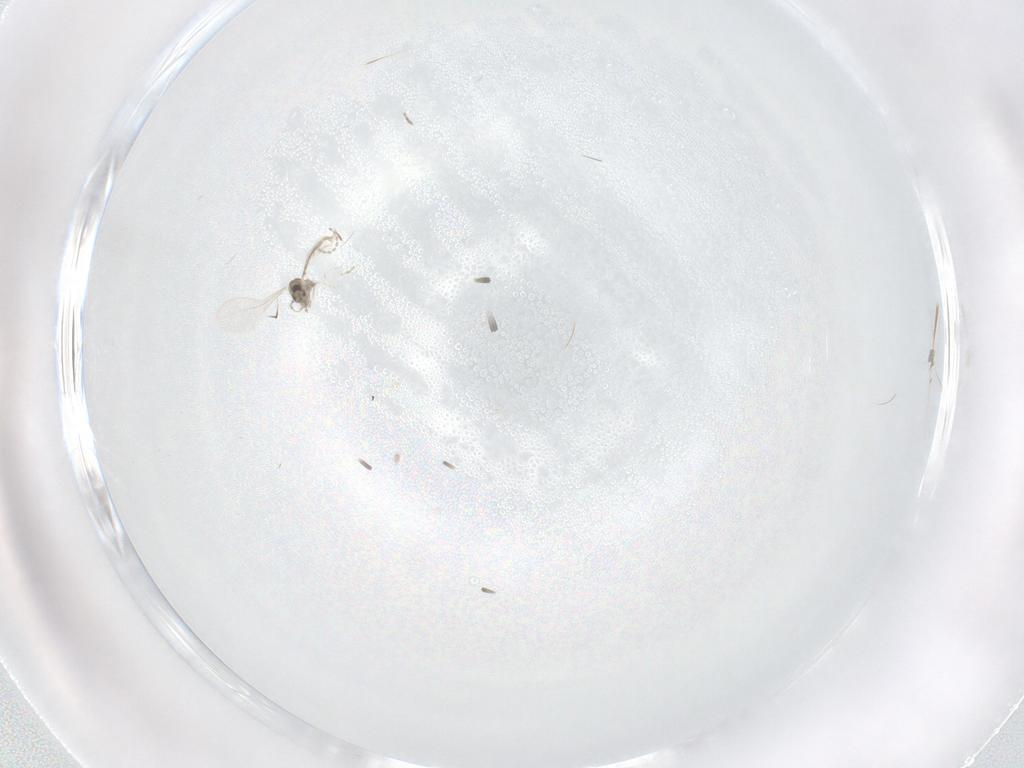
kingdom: Animalia
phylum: Arthropoda
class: Insecta
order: Diptera
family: Cecidomyiidae
